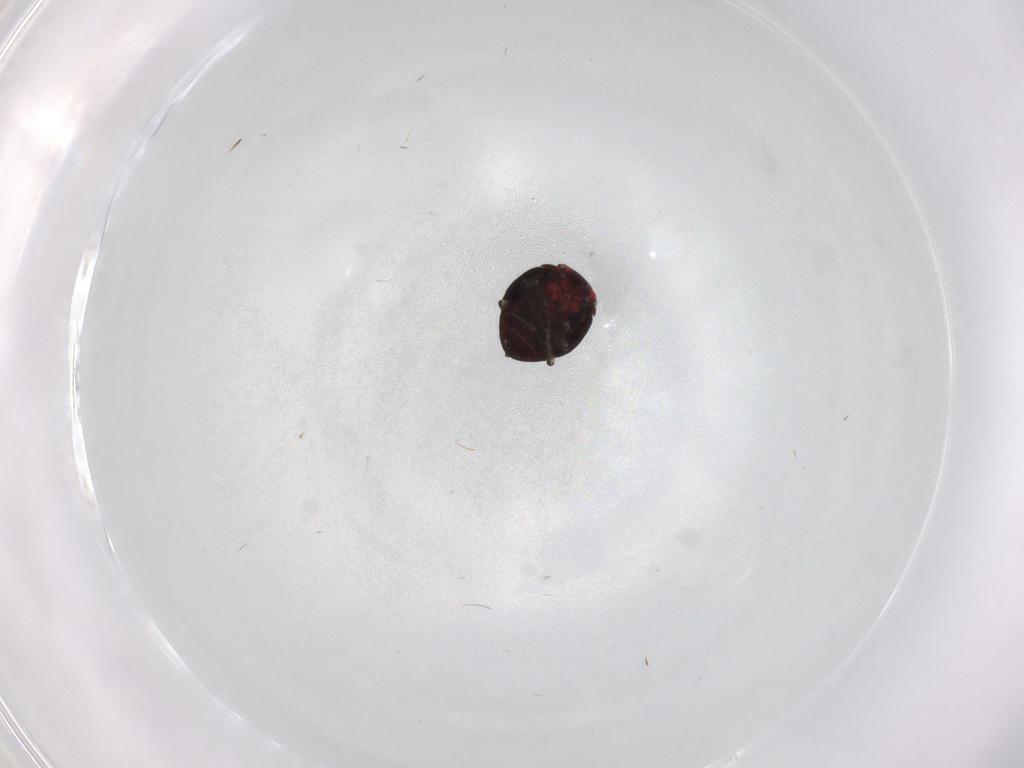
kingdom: Animalia
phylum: Arthropoda
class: Insecta
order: Hemiptera
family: Schizopteridae
